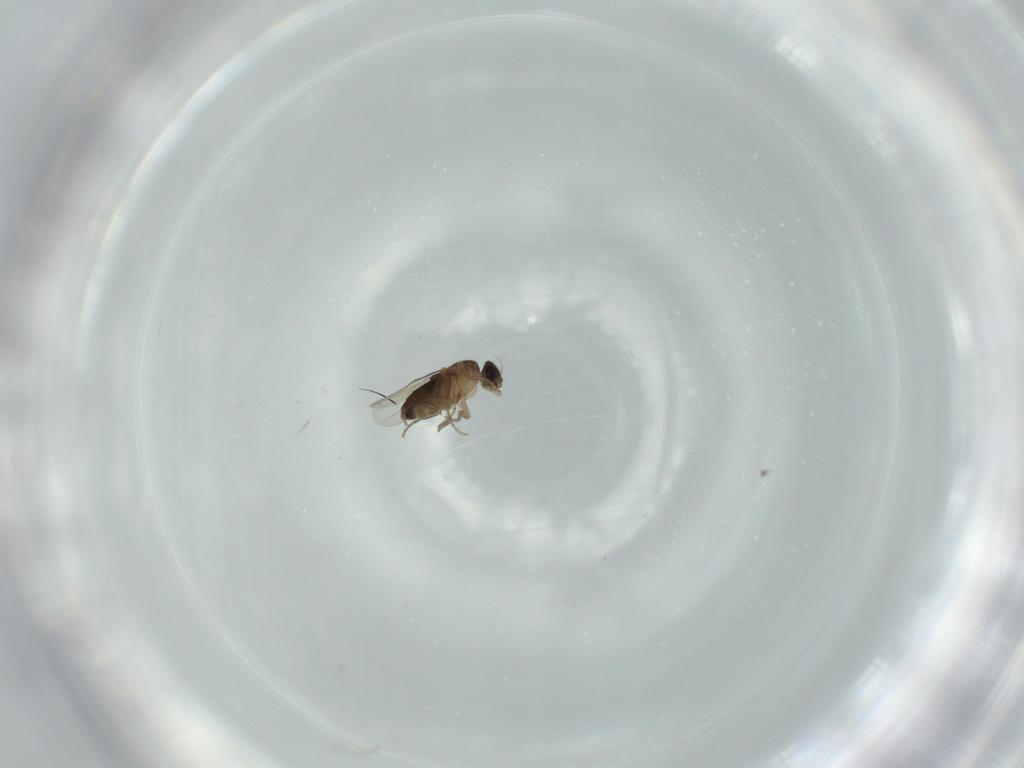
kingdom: Animalia
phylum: Arthropoda
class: Insecta
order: Diptera
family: Phoridae
